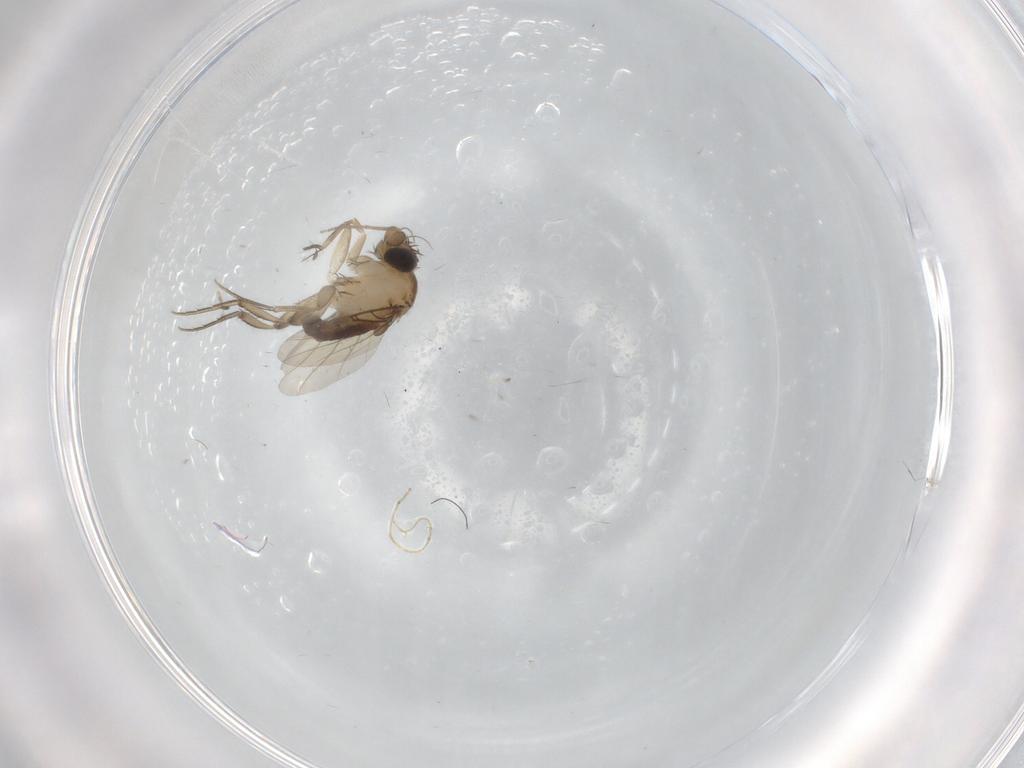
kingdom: Animalia
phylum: Arthropoda
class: Insecta
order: Diptera
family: Phoridae
